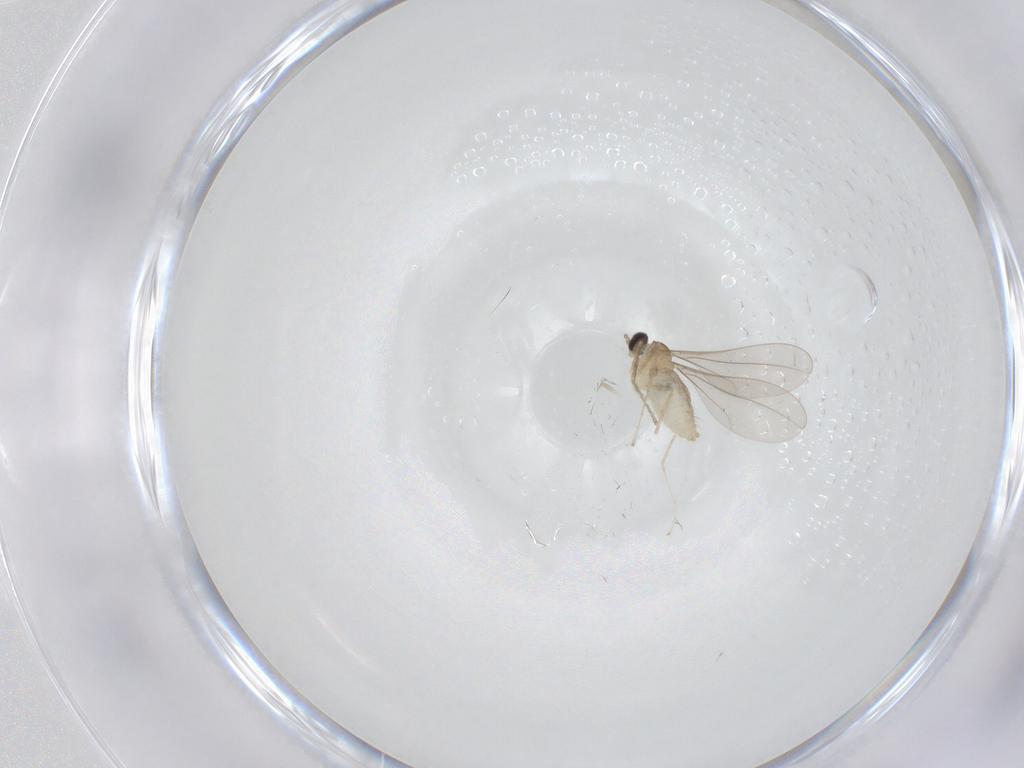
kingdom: Animalia
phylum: Arthropoda
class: Insecta
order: Diptera
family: Cecidomyiidae
